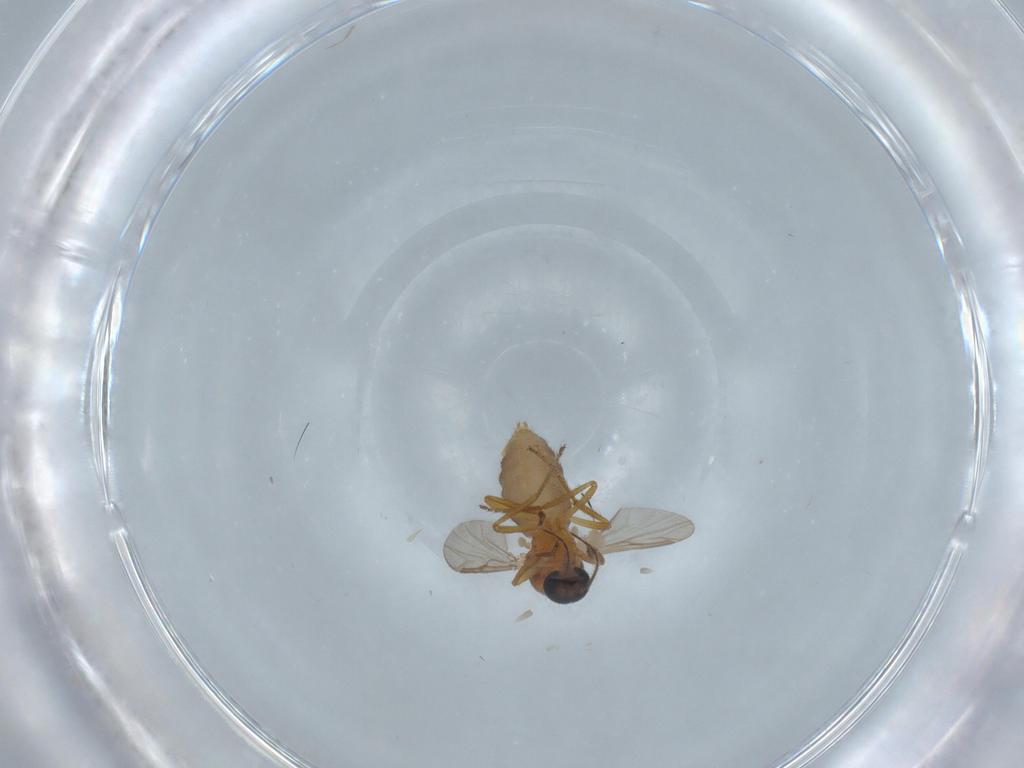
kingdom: Animalia
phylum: Arthropoda
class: Insecta
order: Diptera
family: Ceratopogonidae
